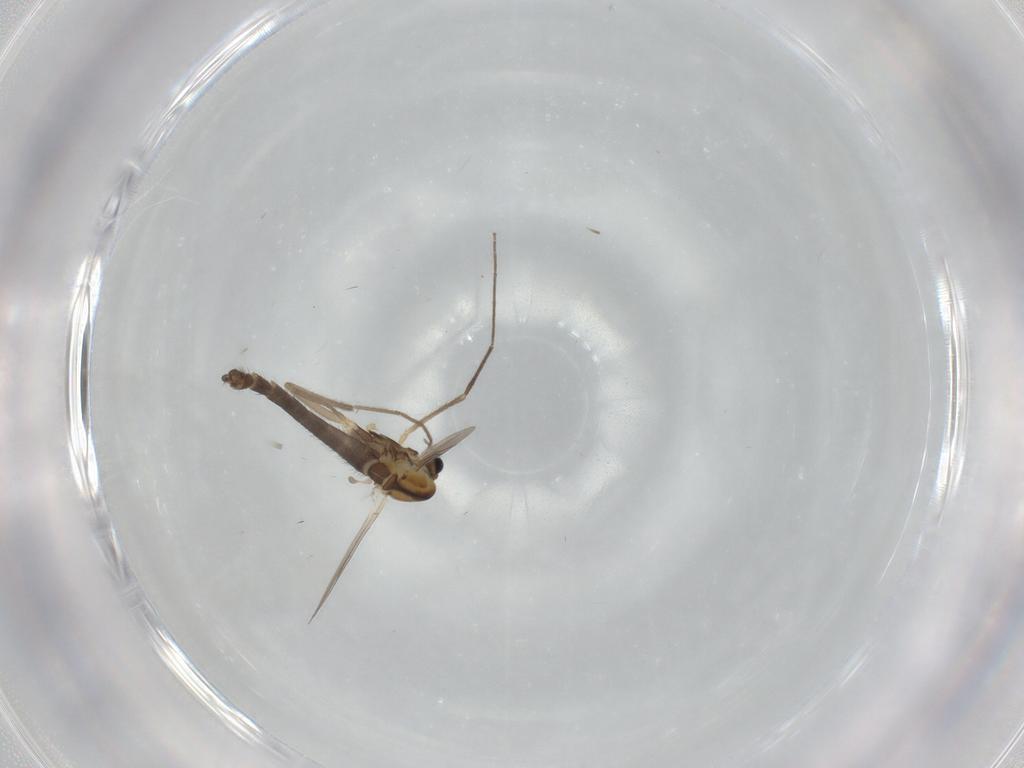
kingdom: Animalia
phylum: Arthropoda
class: Insecta
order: Diptera
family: Chironomidae
